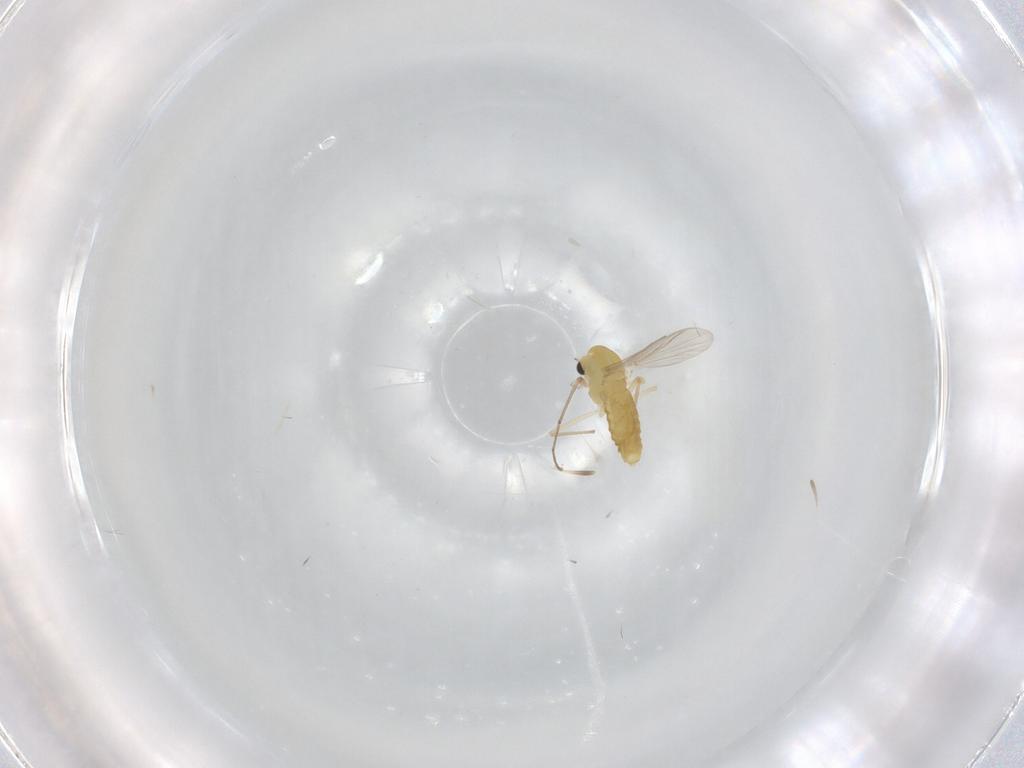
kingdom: Animalia
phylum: Arthropoda
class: Insecta
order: Diptera
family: Chironomidae
